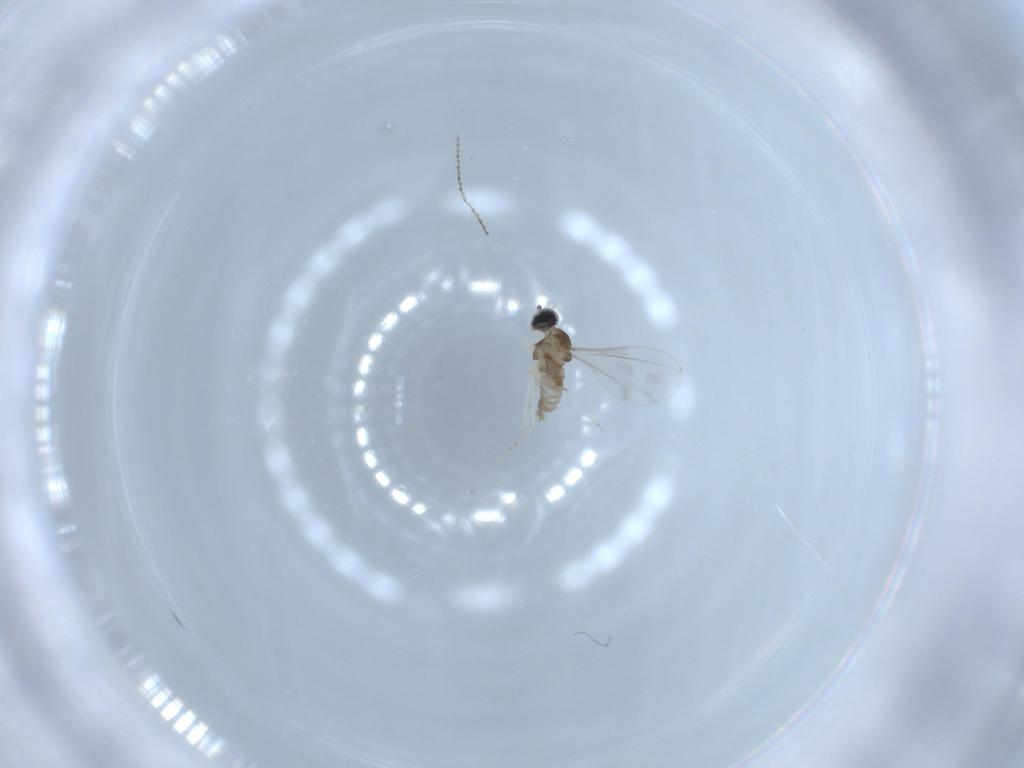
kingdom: Animalia
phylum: Arthropoda
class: Insecta
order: Diptera
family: Cecidomyiidae
